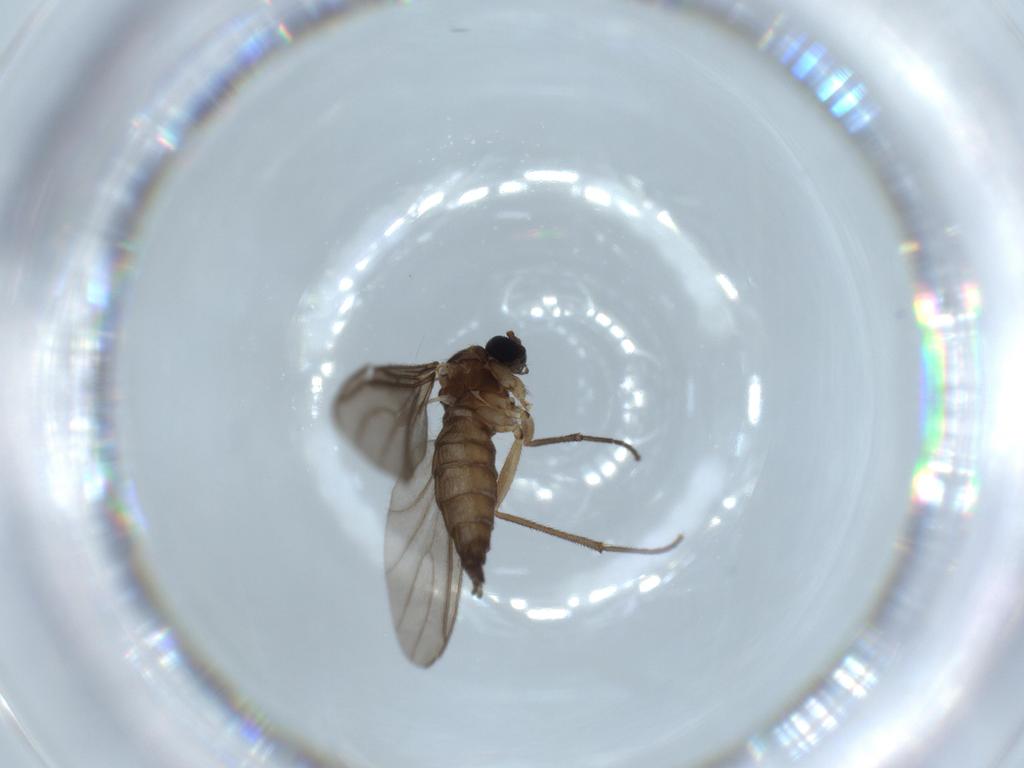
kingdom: Animalia
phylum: Arthropoda
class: Insecta
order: Diptera
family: Sciaridae
